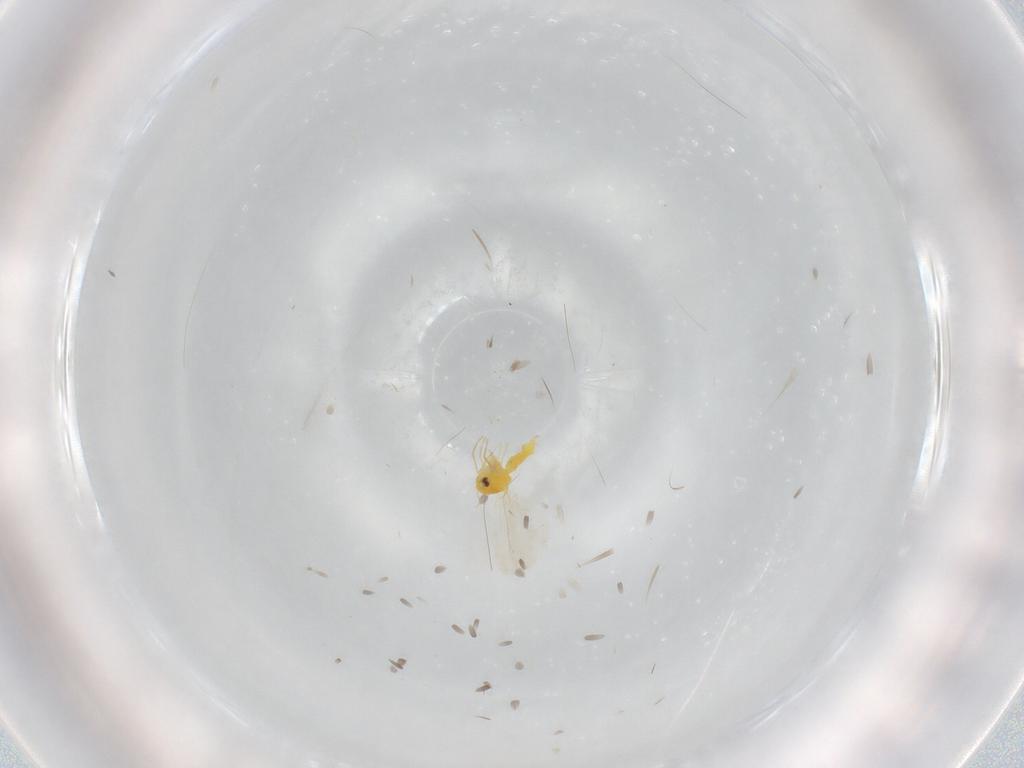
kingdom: Animalia
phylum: Arthropoda
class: Insecta
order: Hemiptera
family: Aleyrodidae
